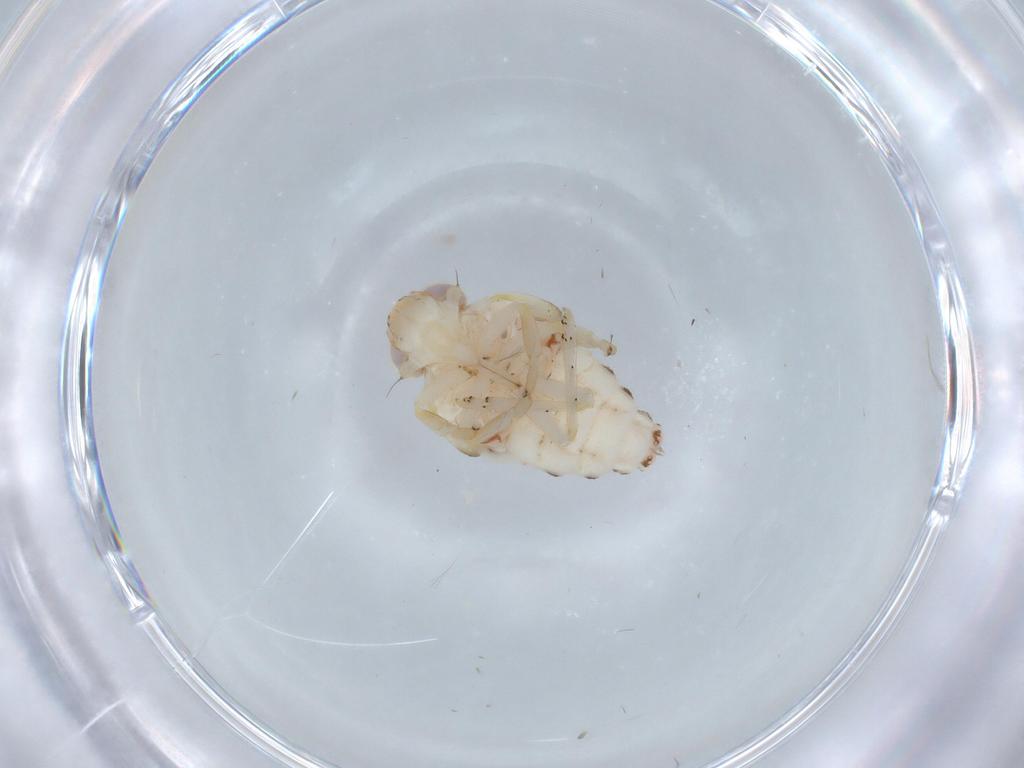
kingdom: Animalia
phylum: Arthropoda
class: Insecta
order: Hemiptera
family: Nogodinidae
